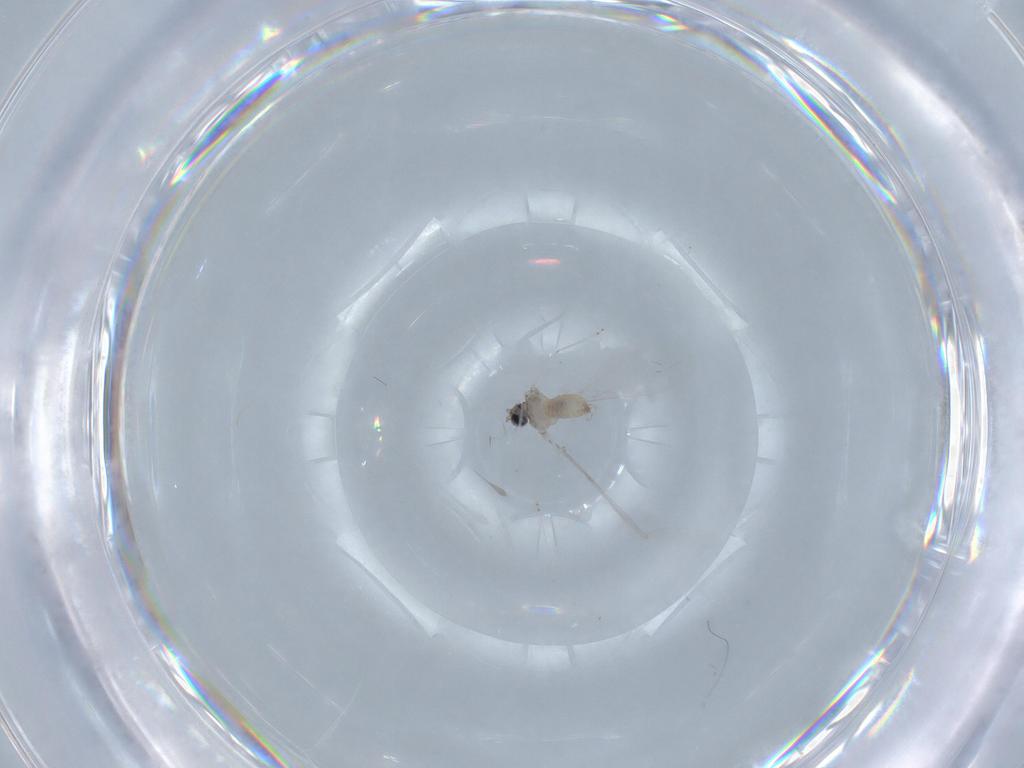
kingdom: Animalia
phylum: Arthropoda
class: Insecta
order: Diptera
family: Cecidomyiidae
